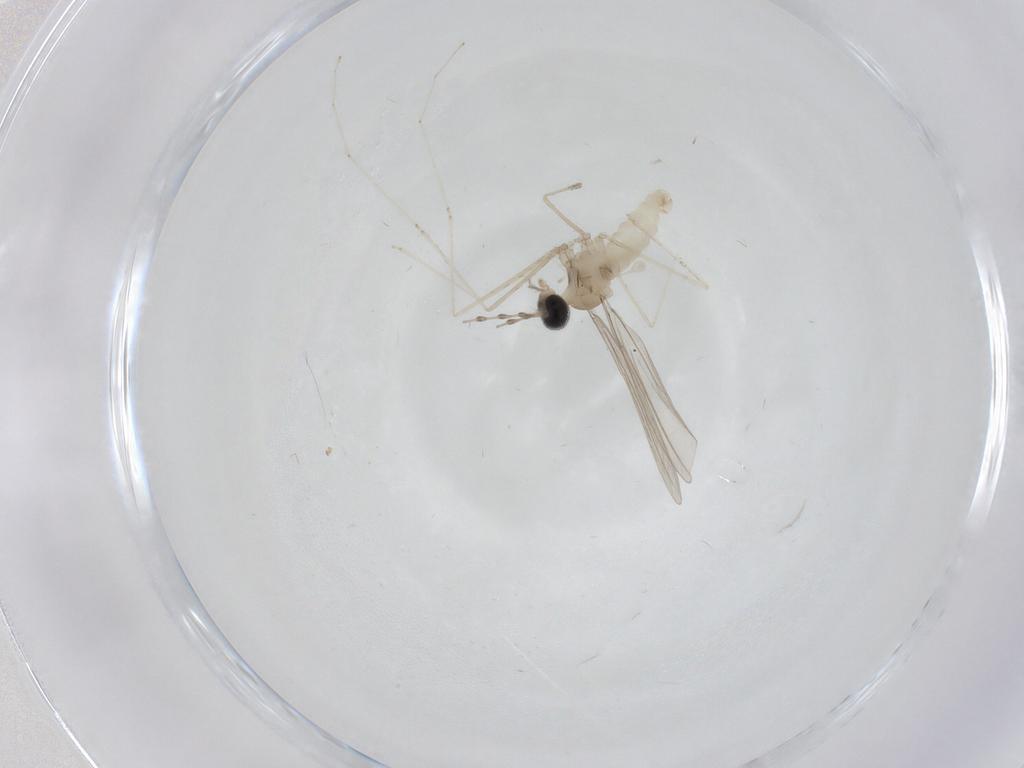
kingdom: Animalia
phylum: Arthropoda
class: Insecta
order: Diptera
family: Cecidomyiidae
